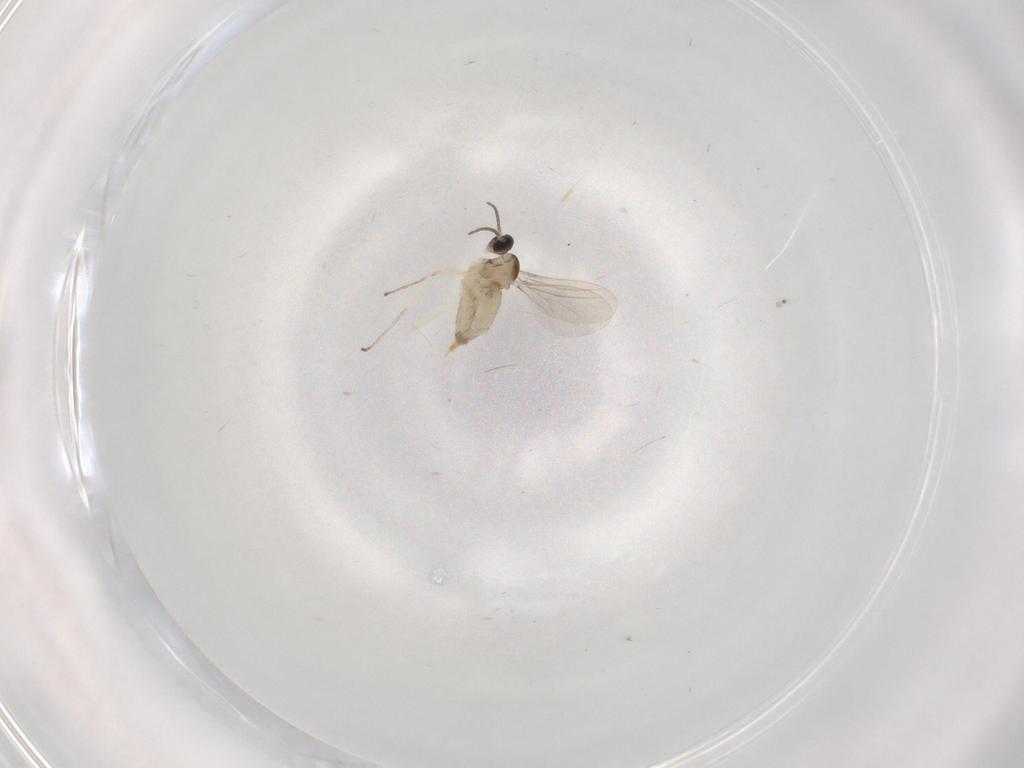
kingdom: Animalia
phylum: Arthropoda
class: Insecta
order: Diptera
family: Cecidomyiidae
